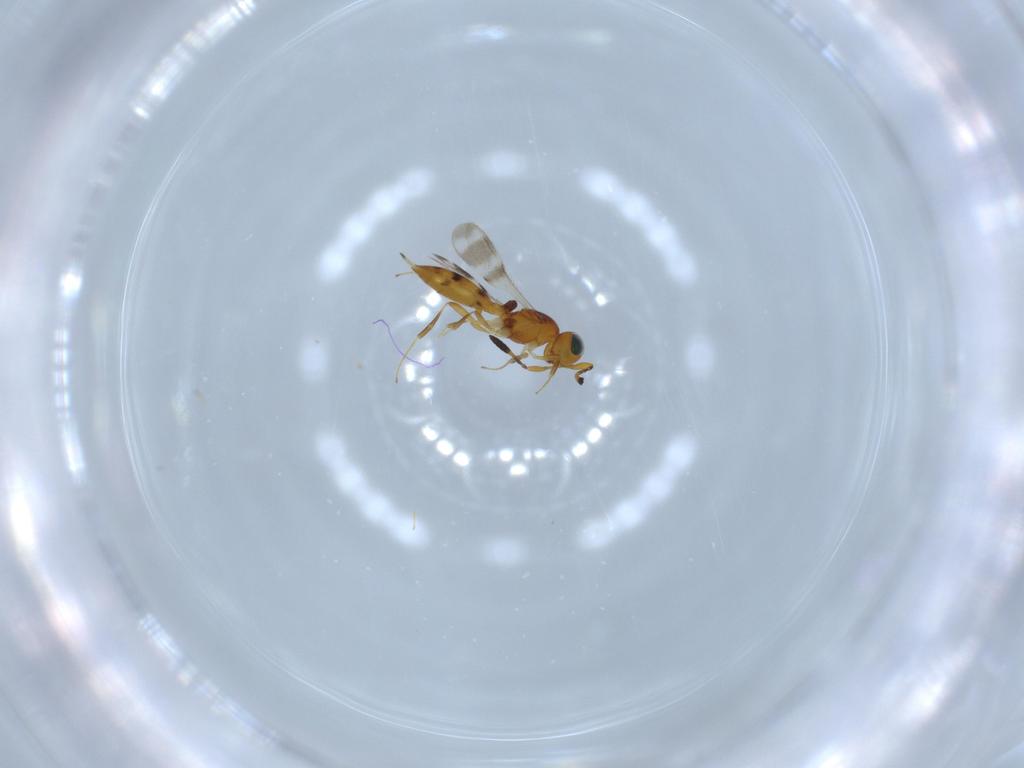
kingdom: Animalia
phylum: Arthropoda
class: Insecta
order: Hymenoptera
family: Scelionidae
